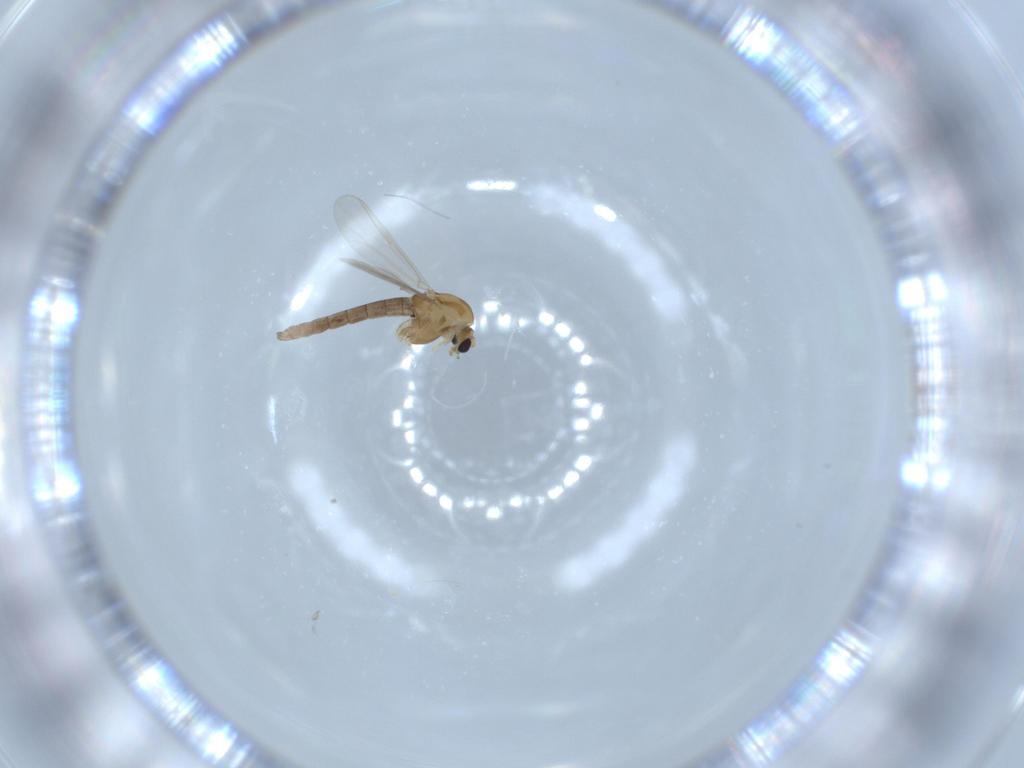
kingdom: Animalia
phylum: Arthropoda
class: Insecta
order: Diptera
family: Chironomidae
